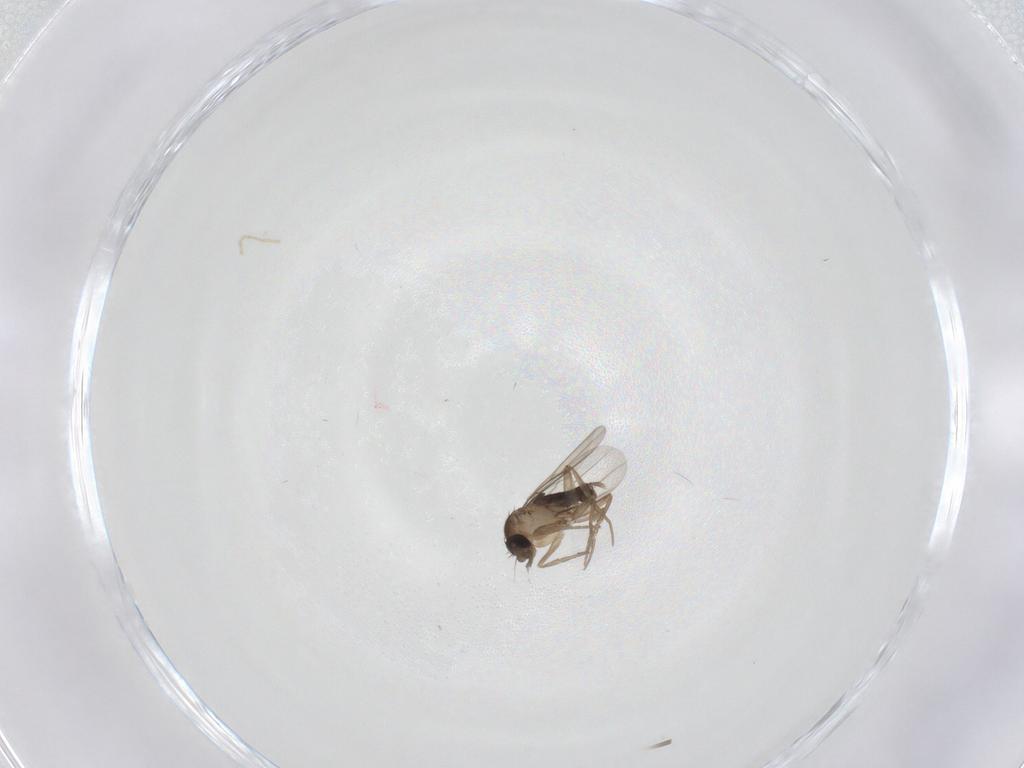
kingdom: Animalia
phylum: Arthropoda
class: Insecta
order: Diptera
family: Phoridae
